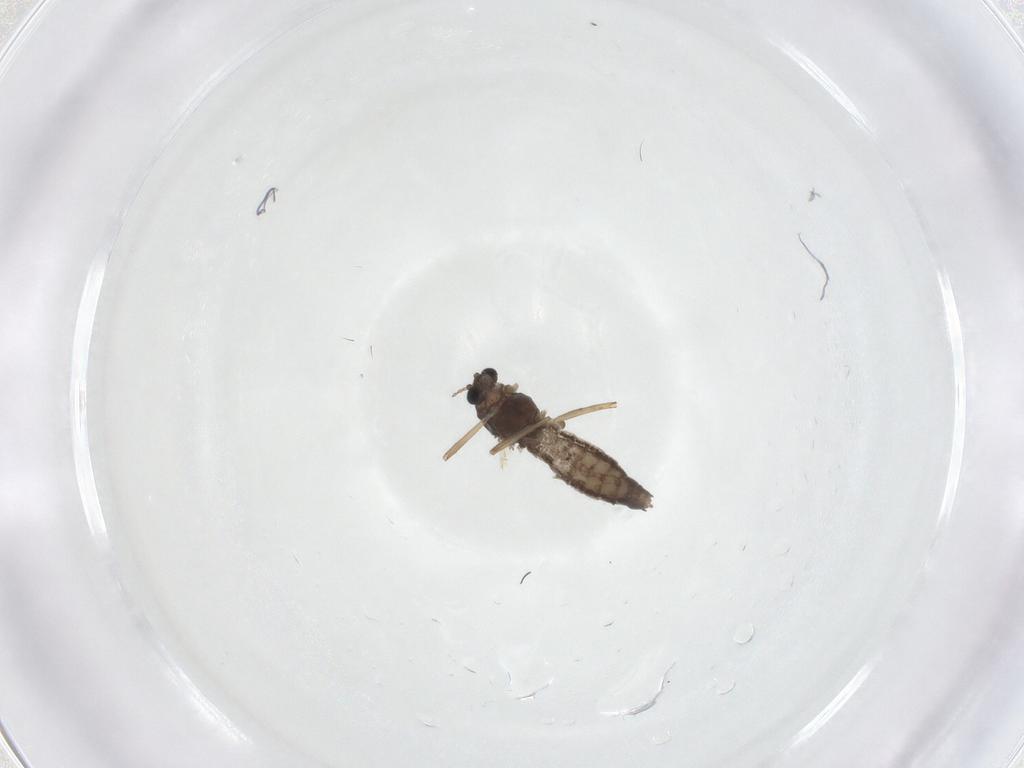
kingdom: Animalia
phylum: Arthropoda
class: Insecta
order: Diptera
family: Chironomidae
